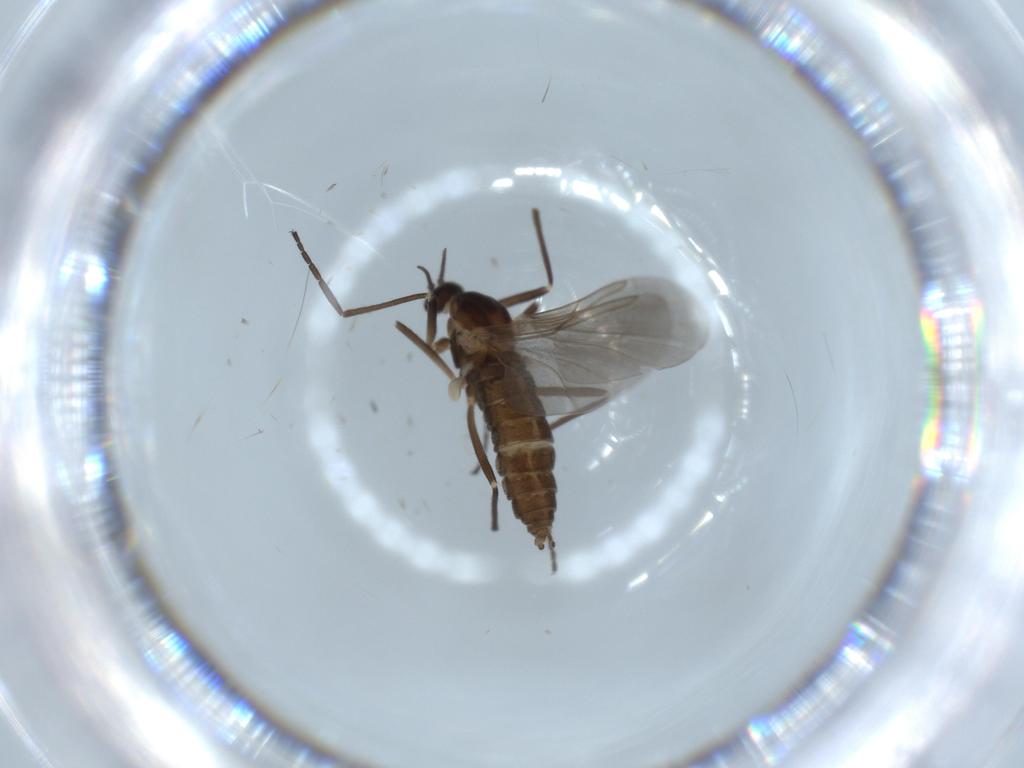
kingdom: Animalia
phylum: Arthropoda
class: Insecta
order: Diptera
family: Cecidomyiidae
